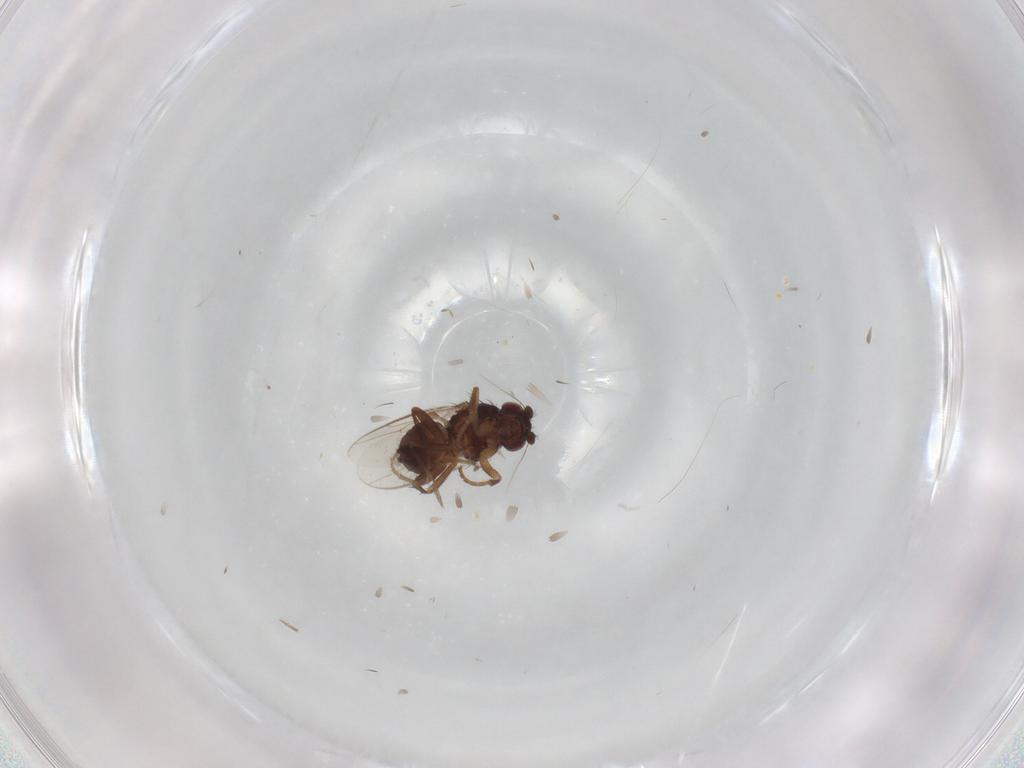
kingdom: Animalia
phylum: Arthropoda
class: Insecta
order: Diptera
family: Sphaeroceridae
